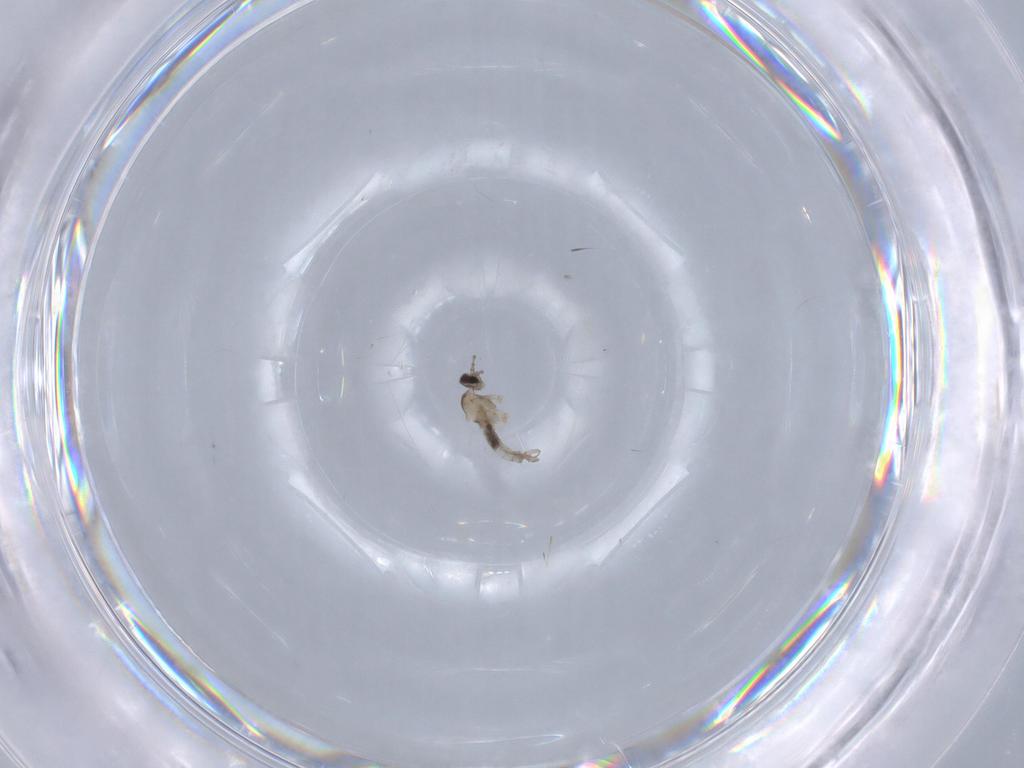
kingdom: Animalia
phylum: Arthropoda
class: Insecta
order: Diptera
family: Cecidomyiidae
